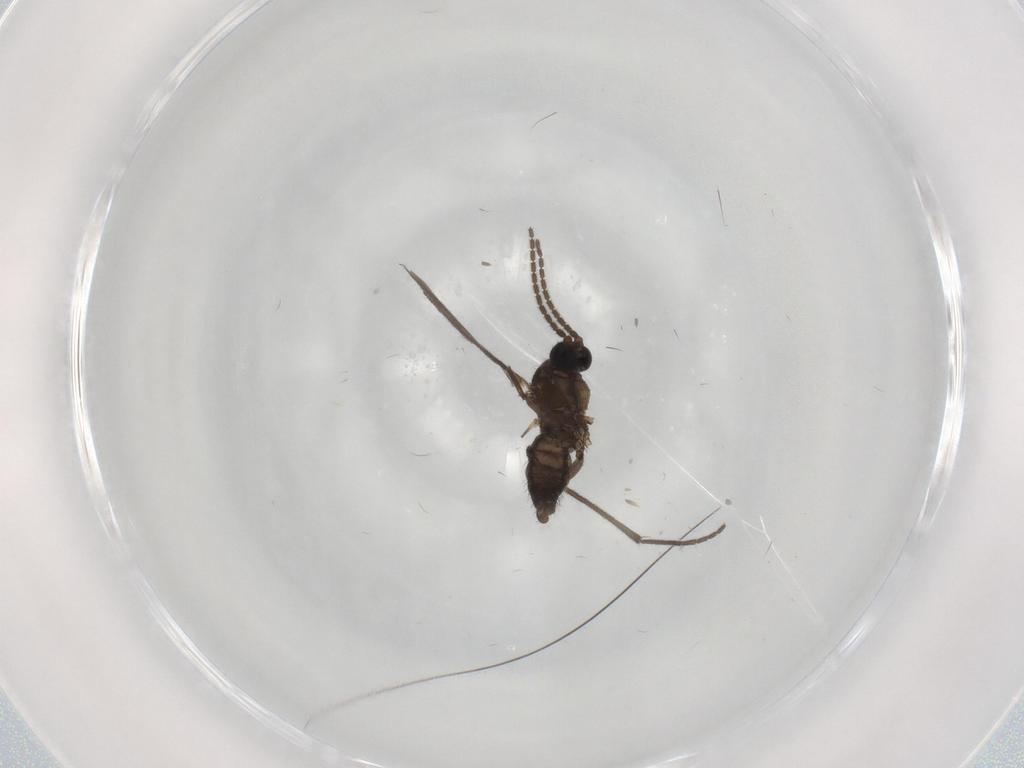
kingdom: Animalia
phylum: Arthropoda
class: Insecta
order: Diptera
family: Sciaridae
